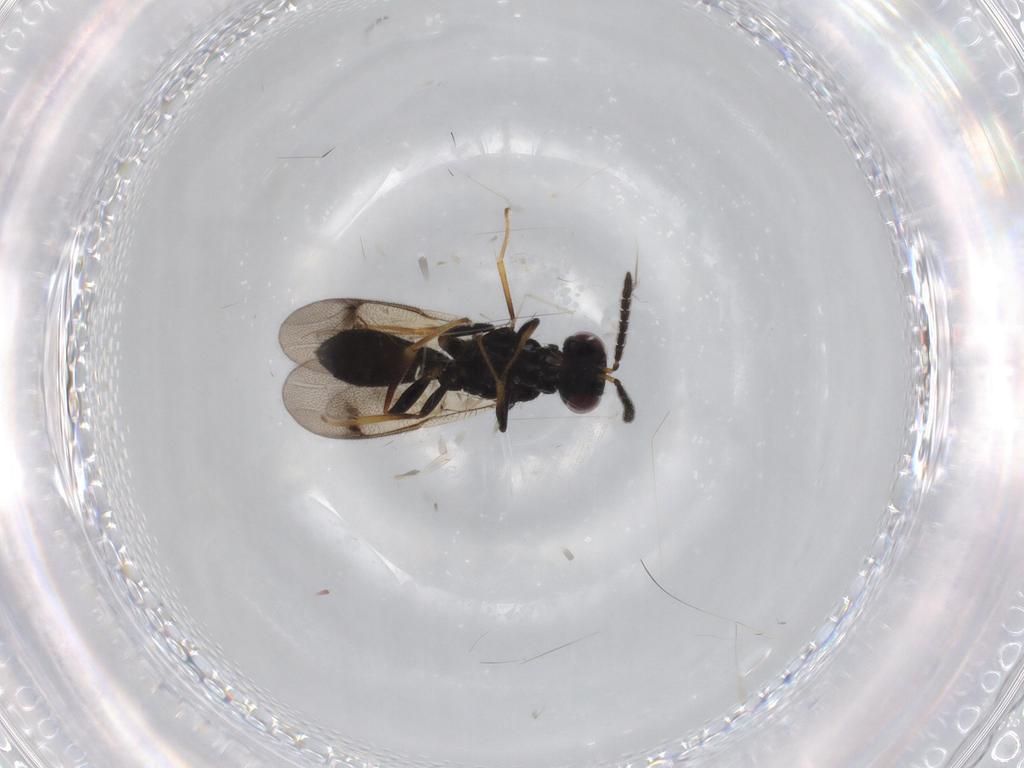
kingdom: Animalia
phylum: Arthropoda
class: Insecta
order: Hymenoptera
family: Pteromalidae
